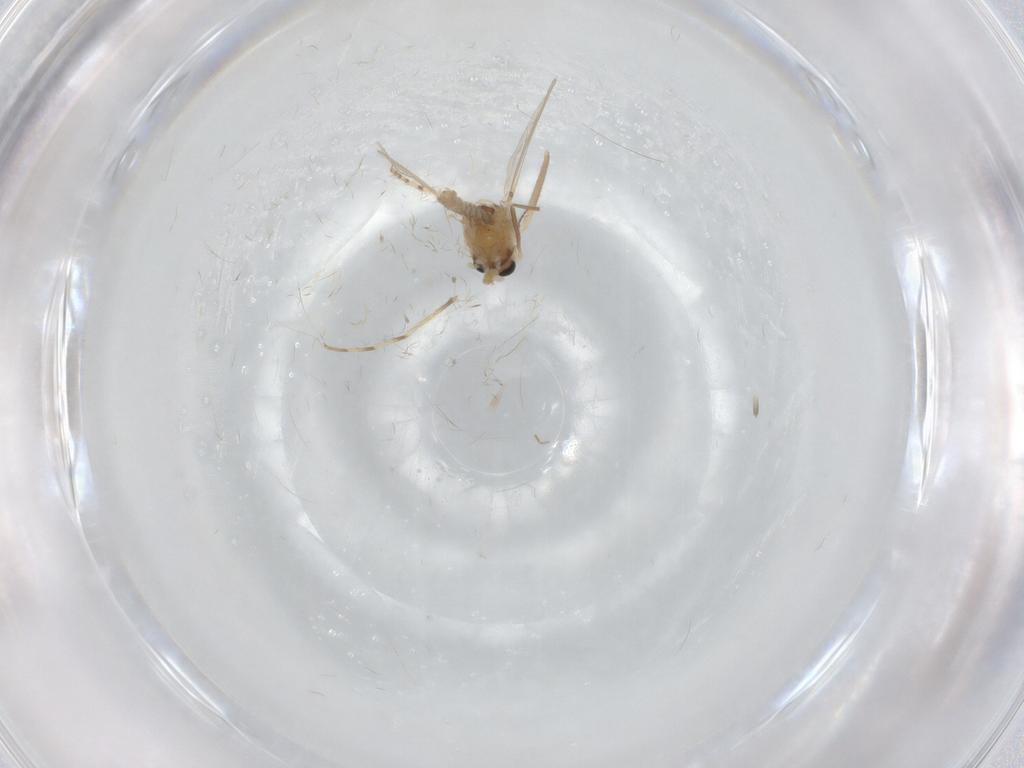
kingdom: Animalia
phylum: Arthropoda
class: Insecta
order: Diptera
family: Chaoboridae
